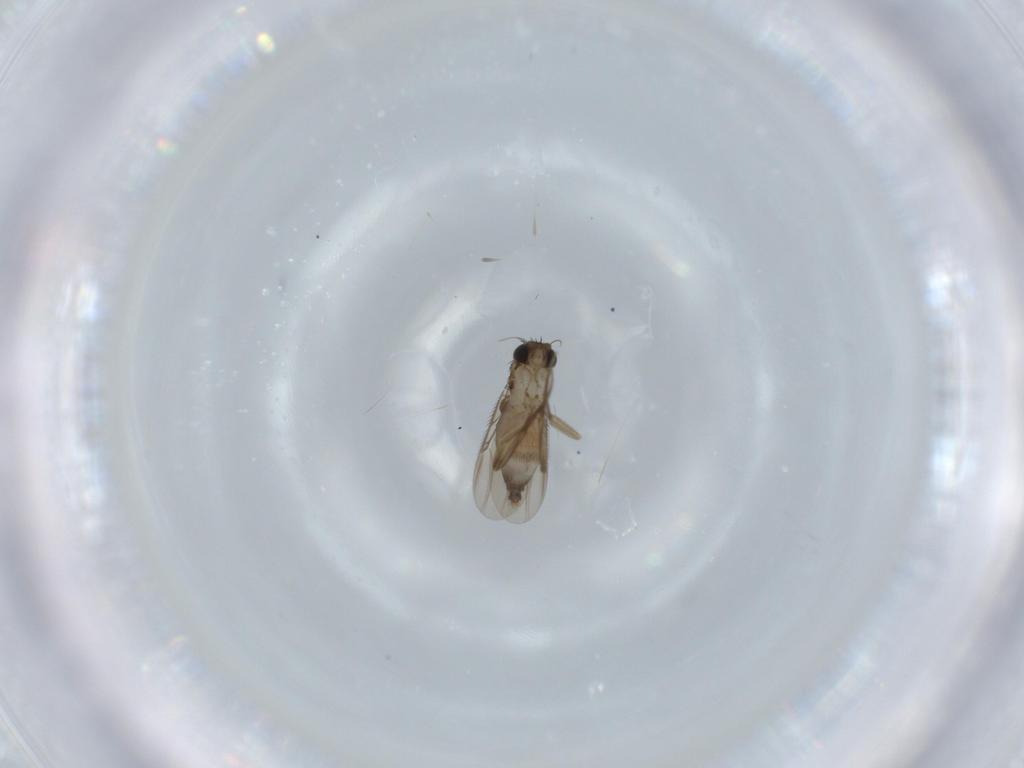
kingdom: Animalia
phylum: Arthropoda
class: Insecta
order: Diptera
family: Phoridae
